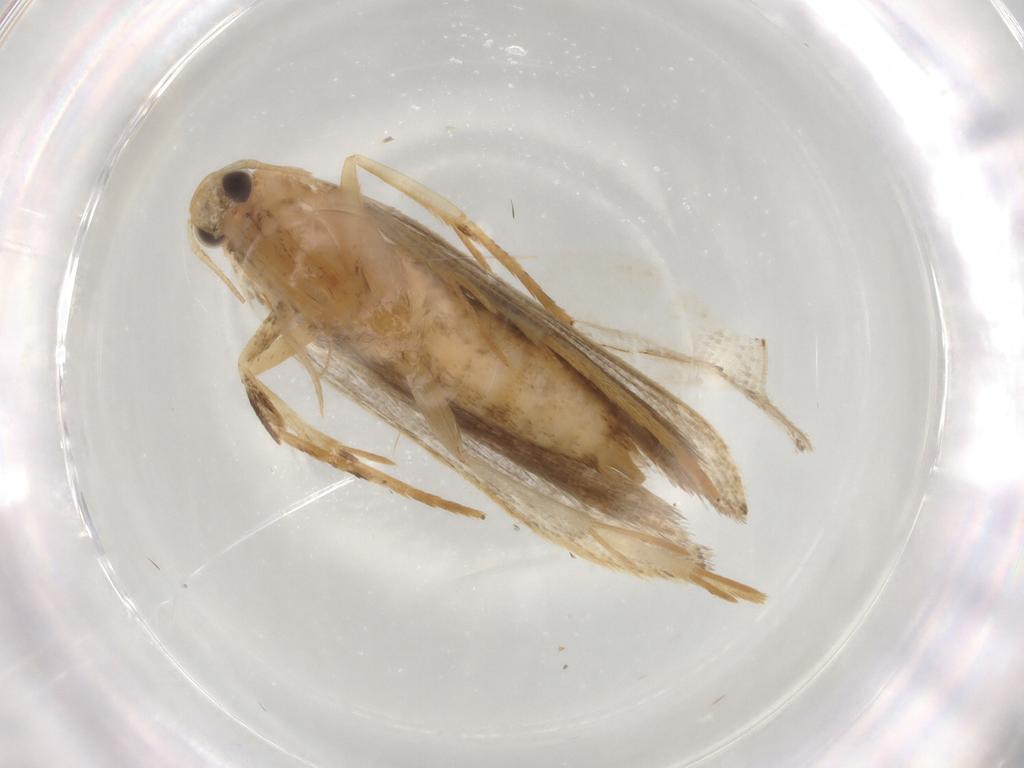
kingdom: Animalia
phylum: Arthropoda
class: Insecta
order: Lepidoptera
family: Gelechiidae
